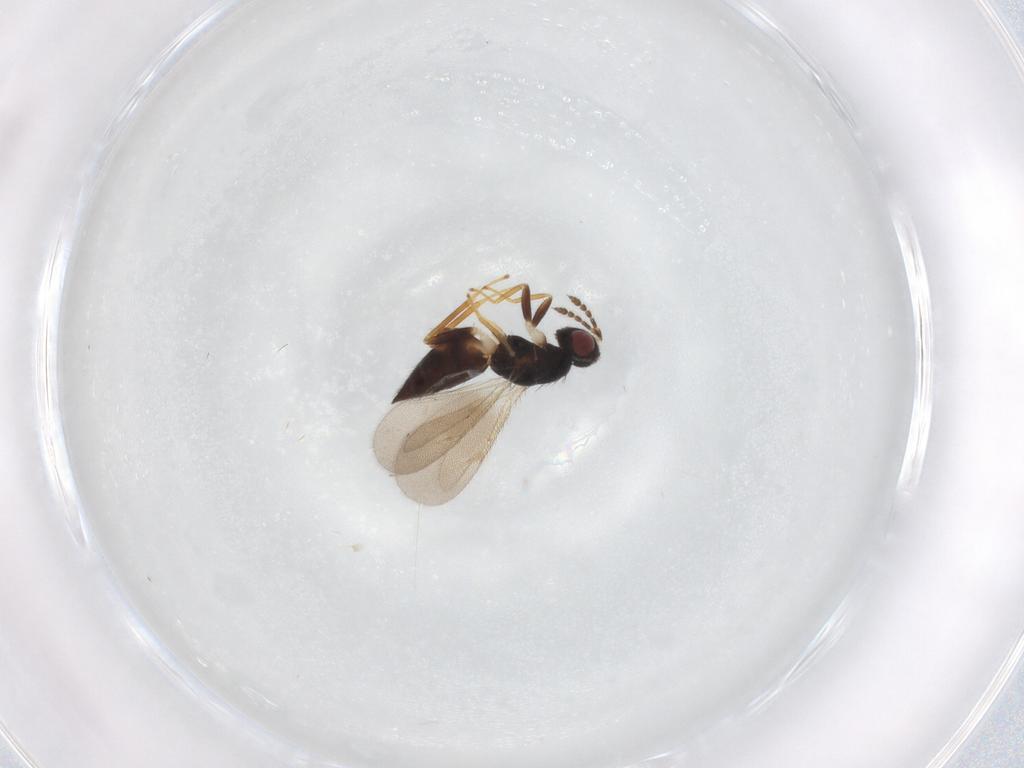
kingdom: Animalia
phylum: Arthropoda
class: Insecta
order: Hymenoptera
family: Eulophidae
